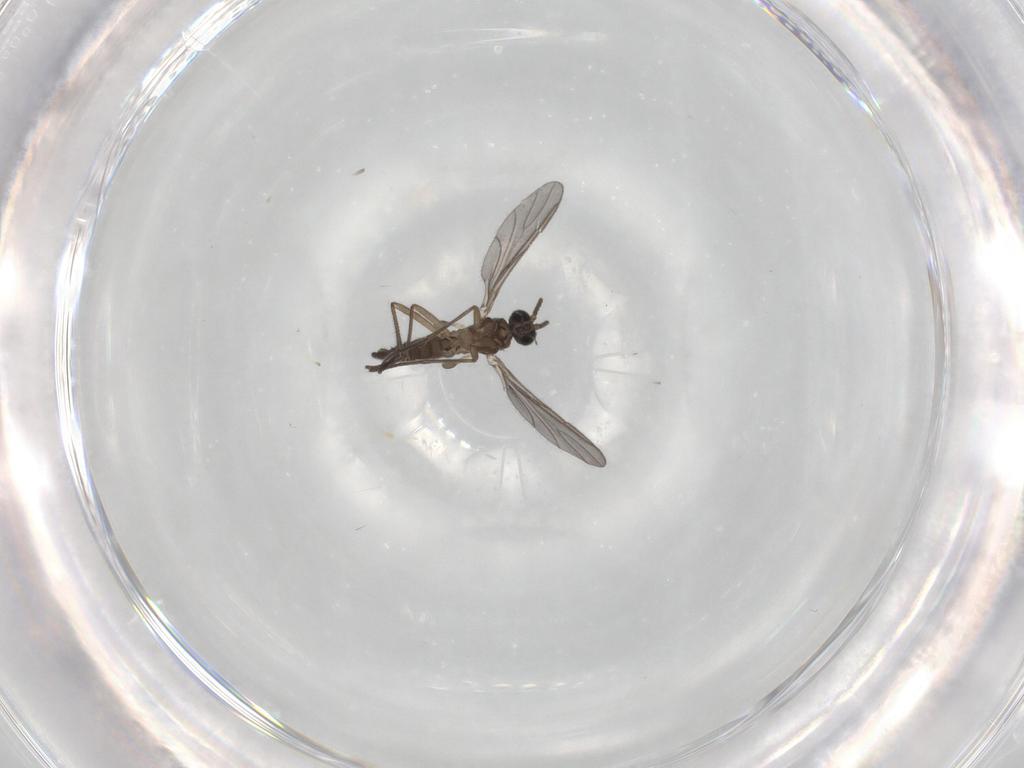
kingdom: Animalia
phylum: Arthropoda
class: Insecta
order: Diptera
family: Sciaridae
